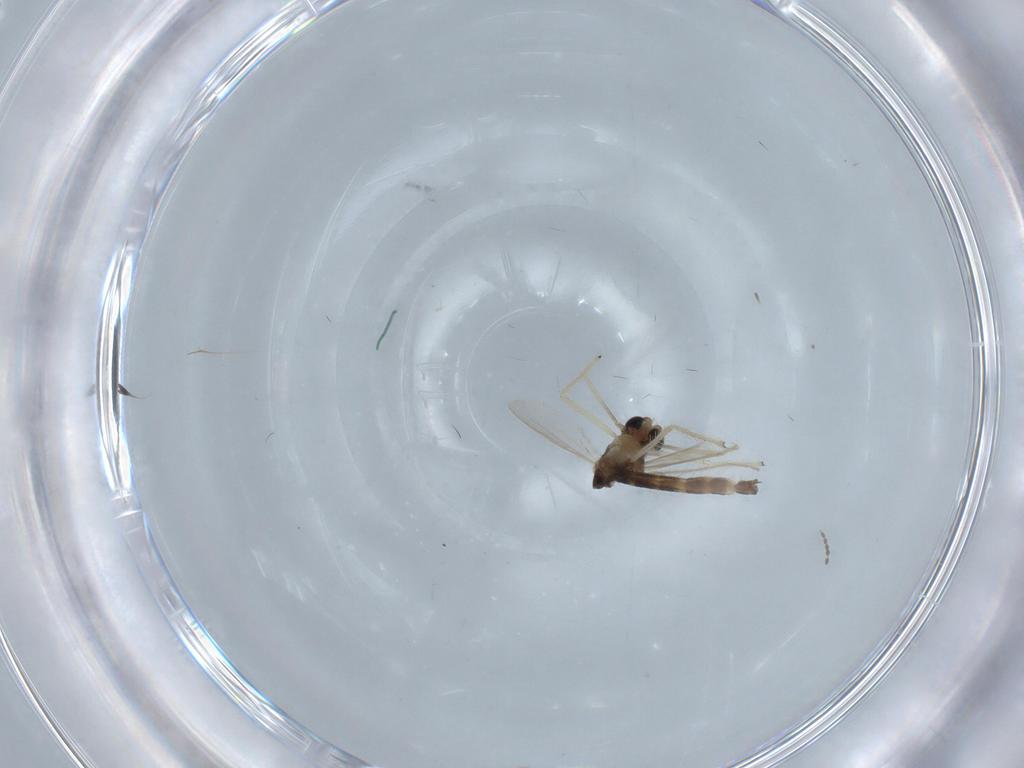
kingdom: Animalia
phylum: Arthropoda
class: Insecta
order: Diptera
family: Chironomidae
